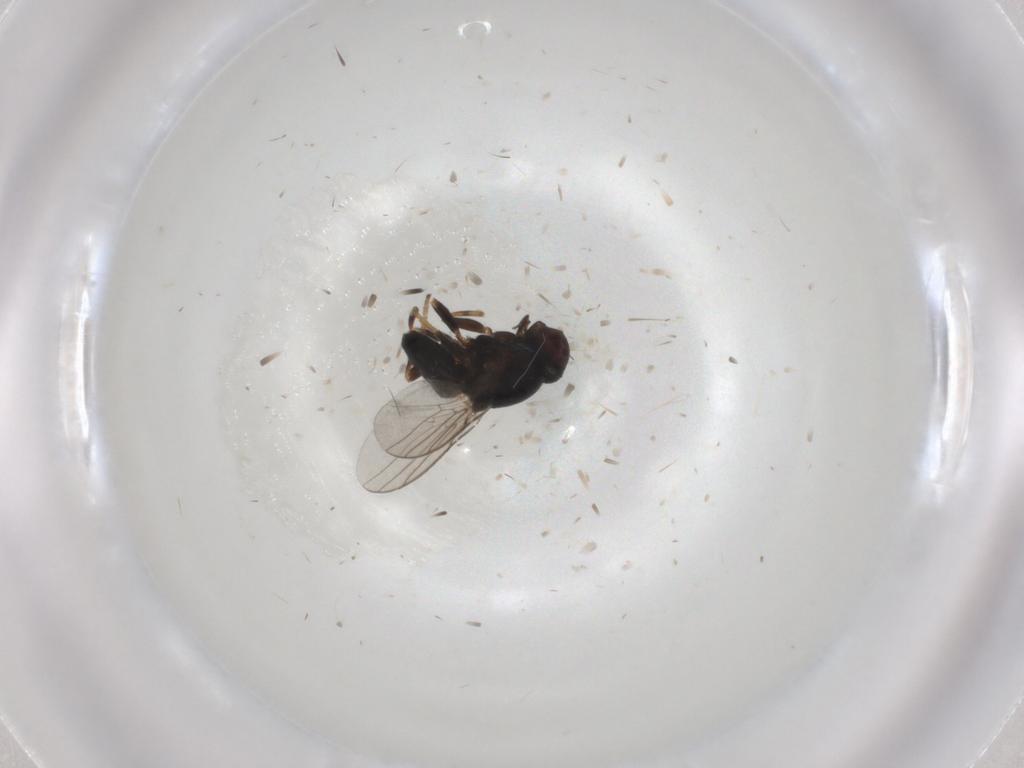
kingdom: Animalia
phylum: Arthropoda
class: Insecta
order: Diptera
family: Chloropidae
